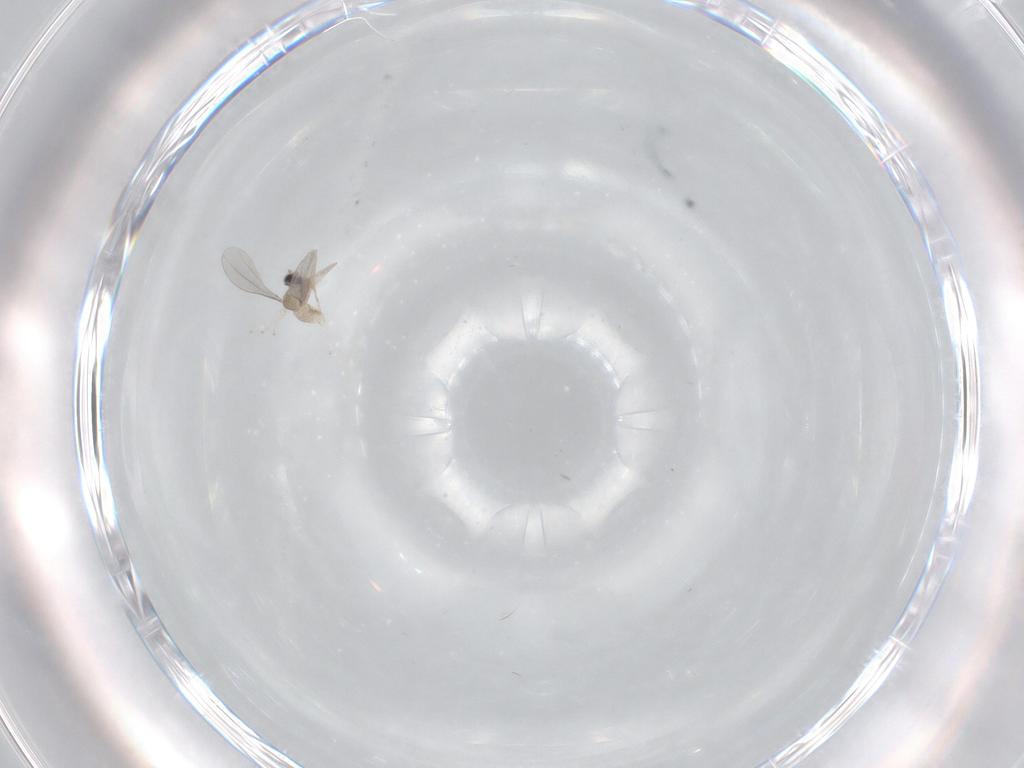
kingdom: Animalia
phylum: Arthropoda
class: Insecta
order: Diptera
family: Cecidomyiidae
